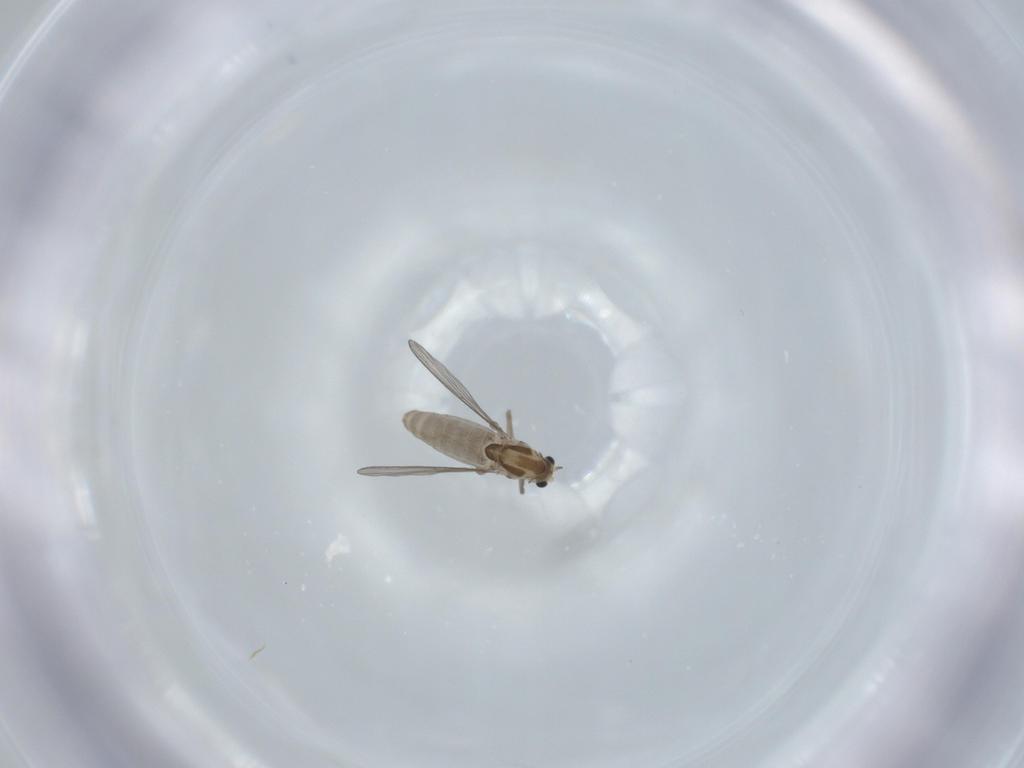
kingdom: Animalia
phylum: Arthropoda
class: Insecta
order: Diptera
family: Chironomidae
